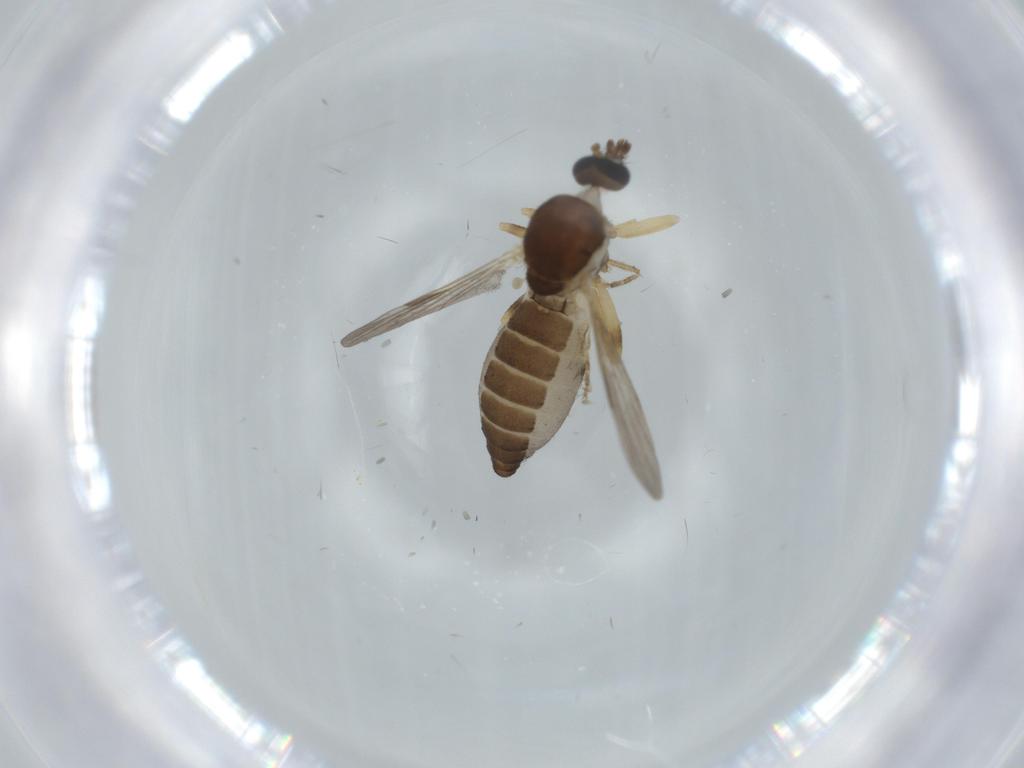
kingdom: Animalia
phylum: Arthropoda
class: Insecta
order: Diptera
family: Ceratopogonidae
